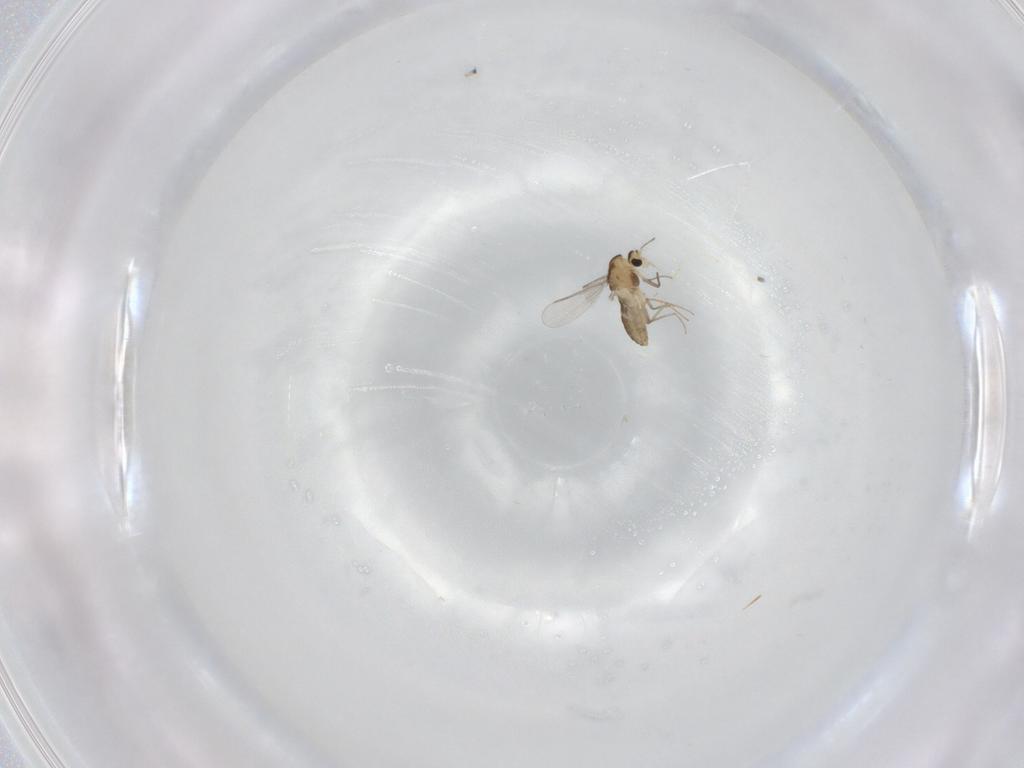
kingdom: Animalia
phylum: Arthropoda
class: Insecta
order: Diptera
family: Chironomidae
